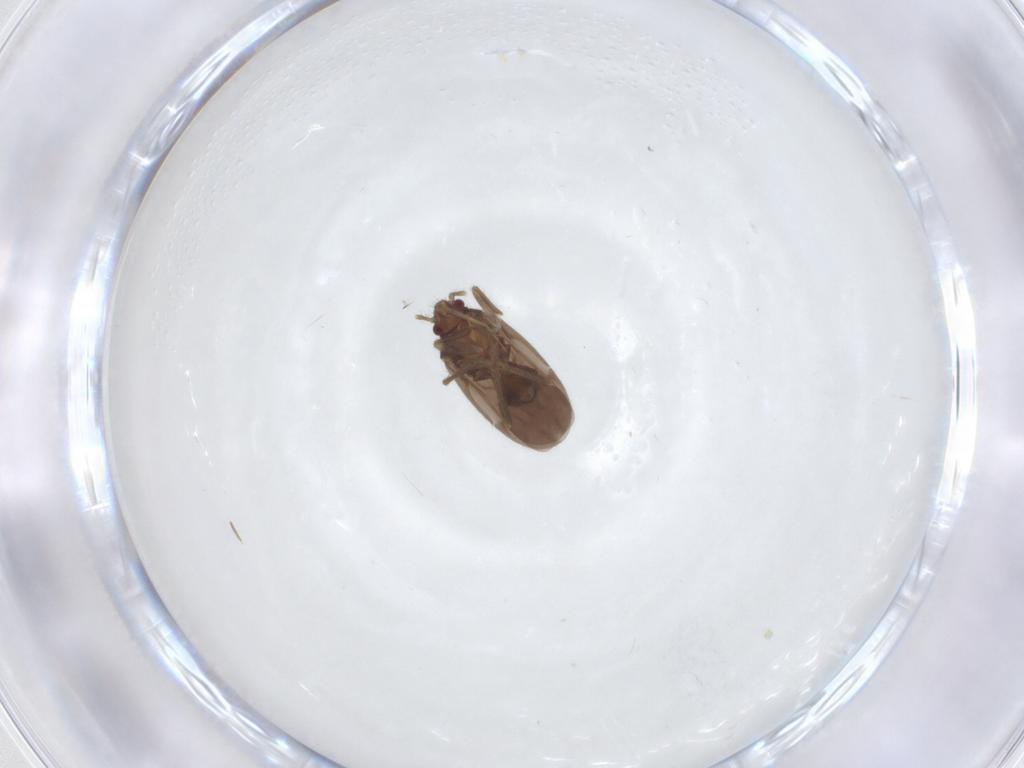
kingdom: Animalia
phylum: Arthropoda
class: Insecta
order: Hemiptera
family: Ceratocombidae
